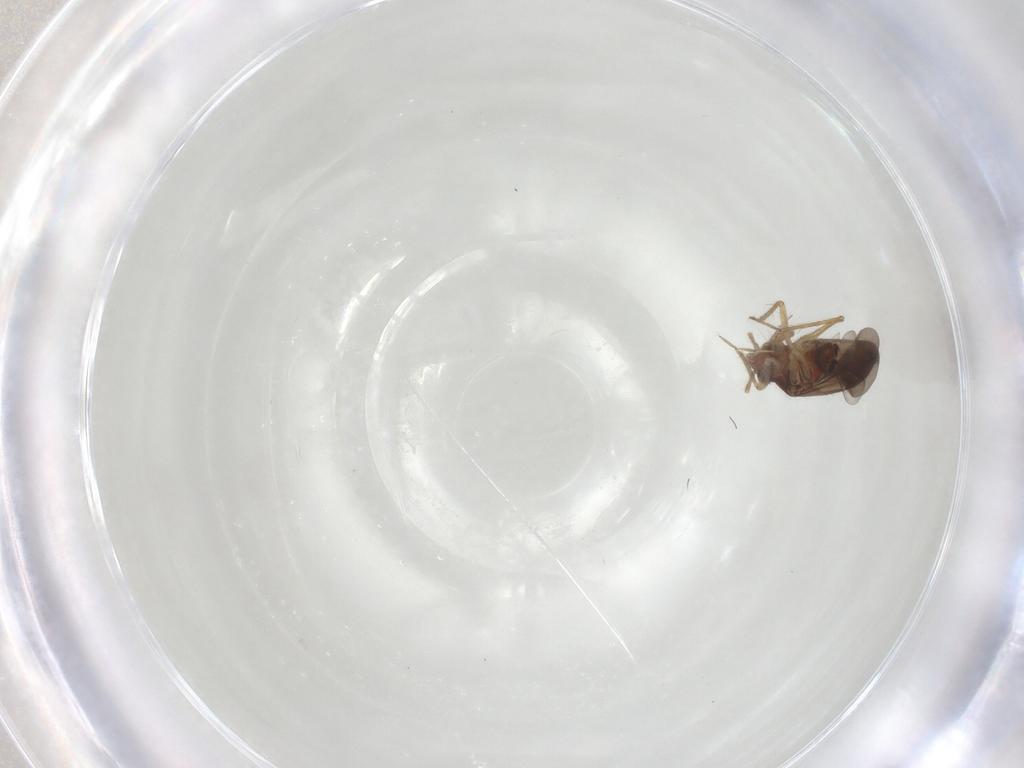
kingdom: Animalia
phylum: Arthropoda
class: Insecta
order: Hemiptera
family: Ceratocombidae
